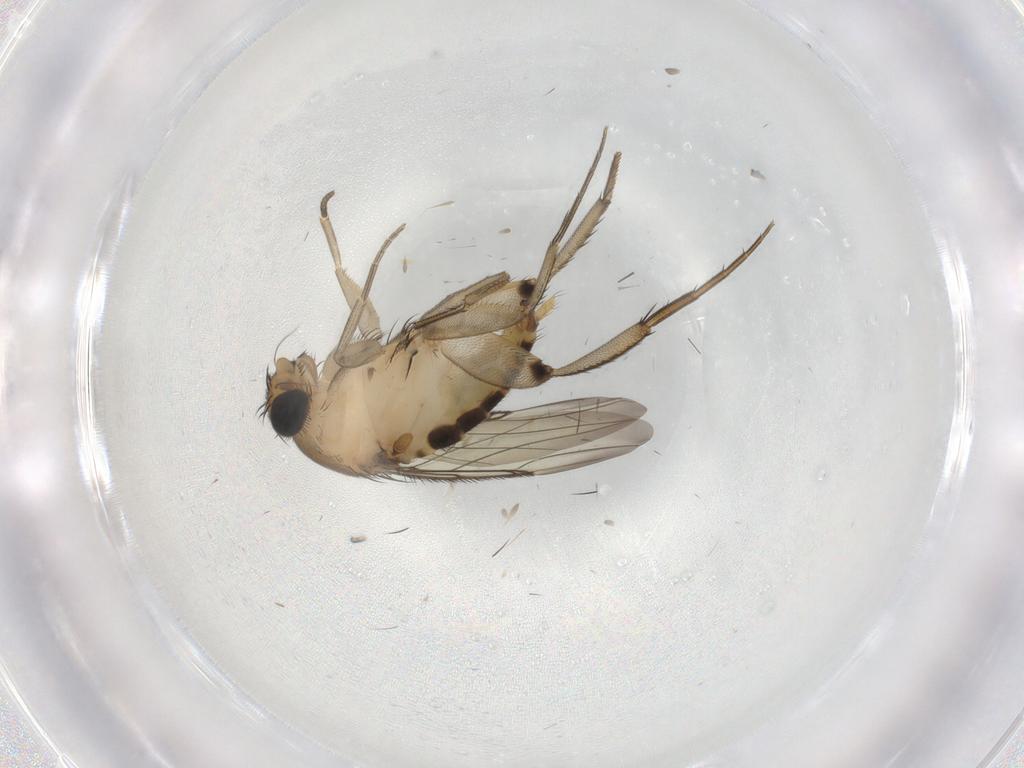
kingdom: Animalia
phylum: Arthropoda
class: Insecta
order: Diptera
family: Phoridae
